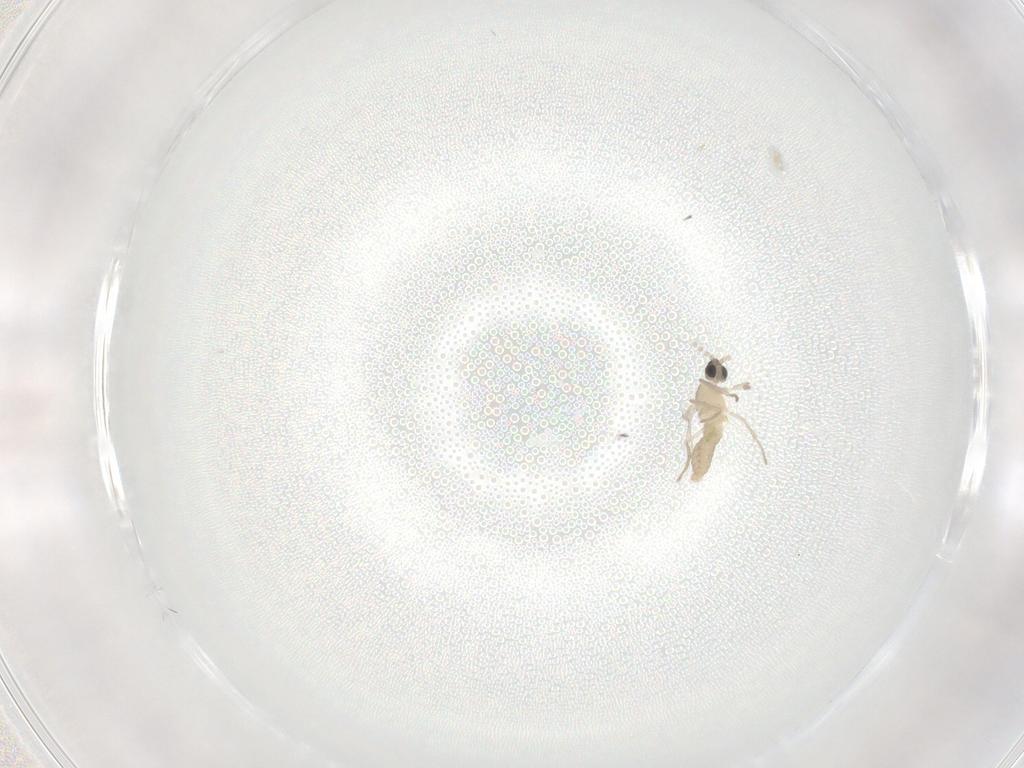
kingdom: Animalia
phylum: Arthropoda
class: Insecta
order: Diptera
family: Cecidomyiidae
